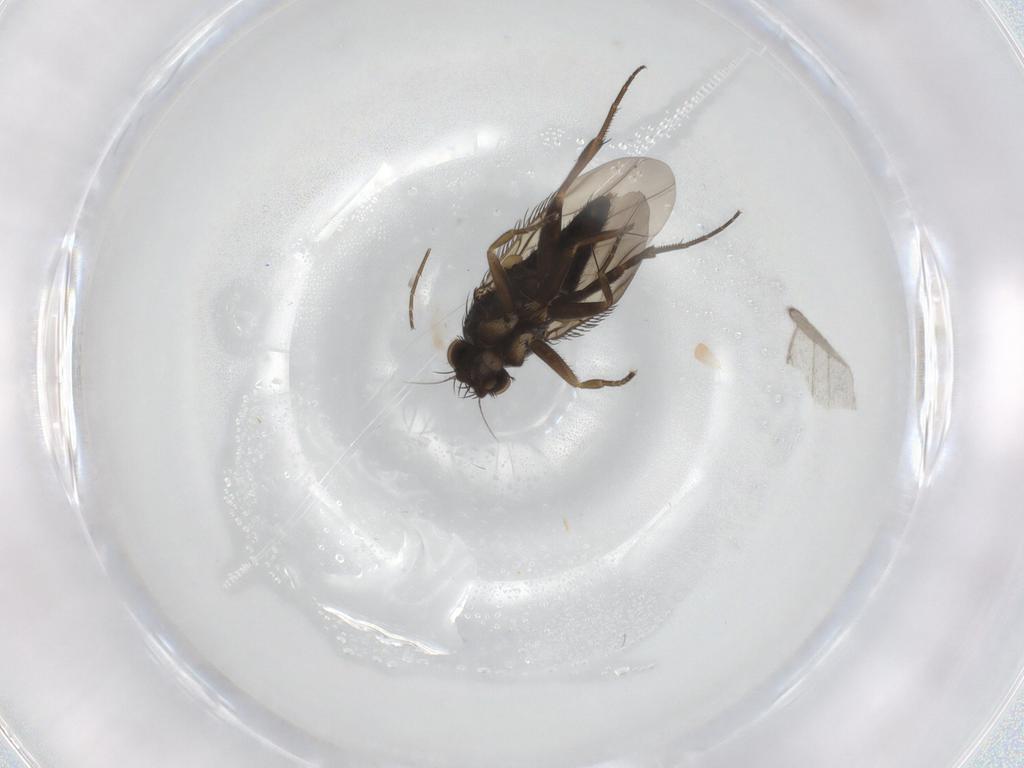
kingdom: Animalia
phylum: Arthropoda
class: Insecta
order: Diptera
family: Phoridae
